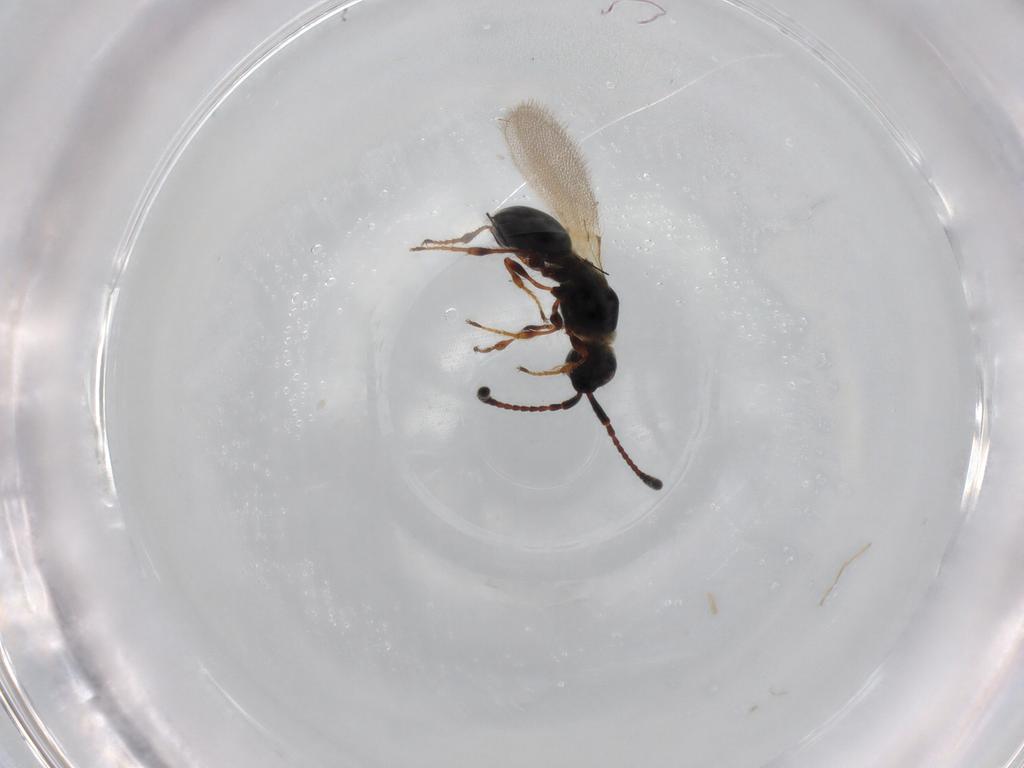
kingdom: Animalia
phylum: Arthropoda
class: Insecta
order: Hymenoptera
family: Diapriidae
